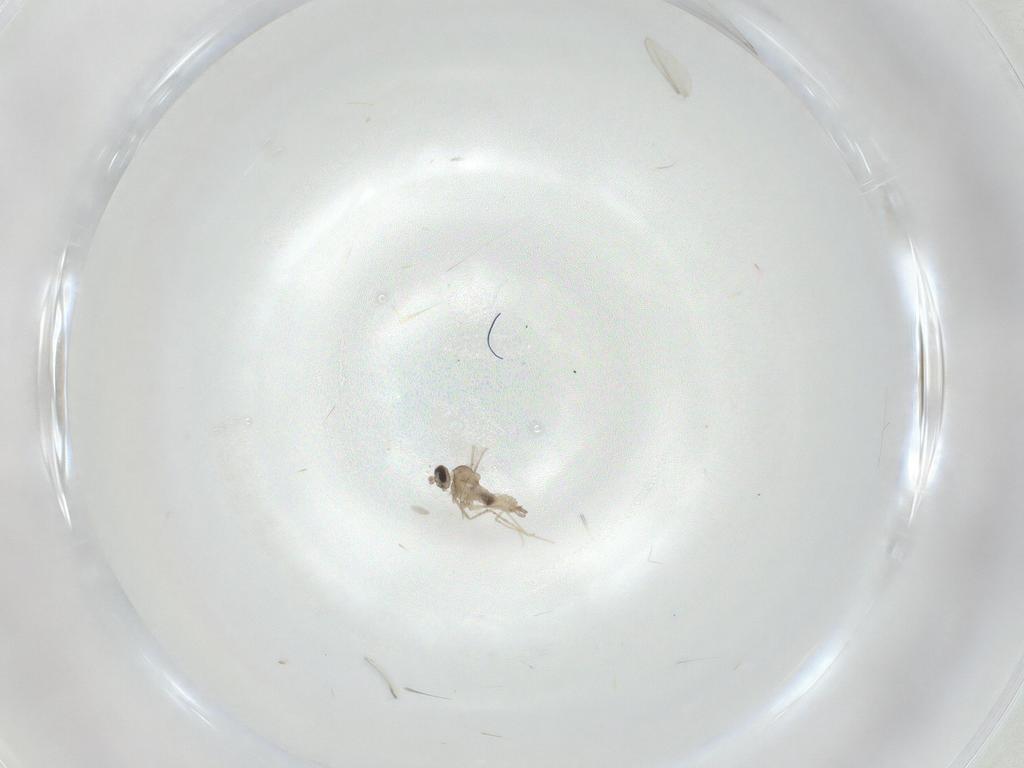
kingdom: Animalia
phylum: Arthropoda
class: Insecta
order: Diptera
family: Cecidomyiidae
